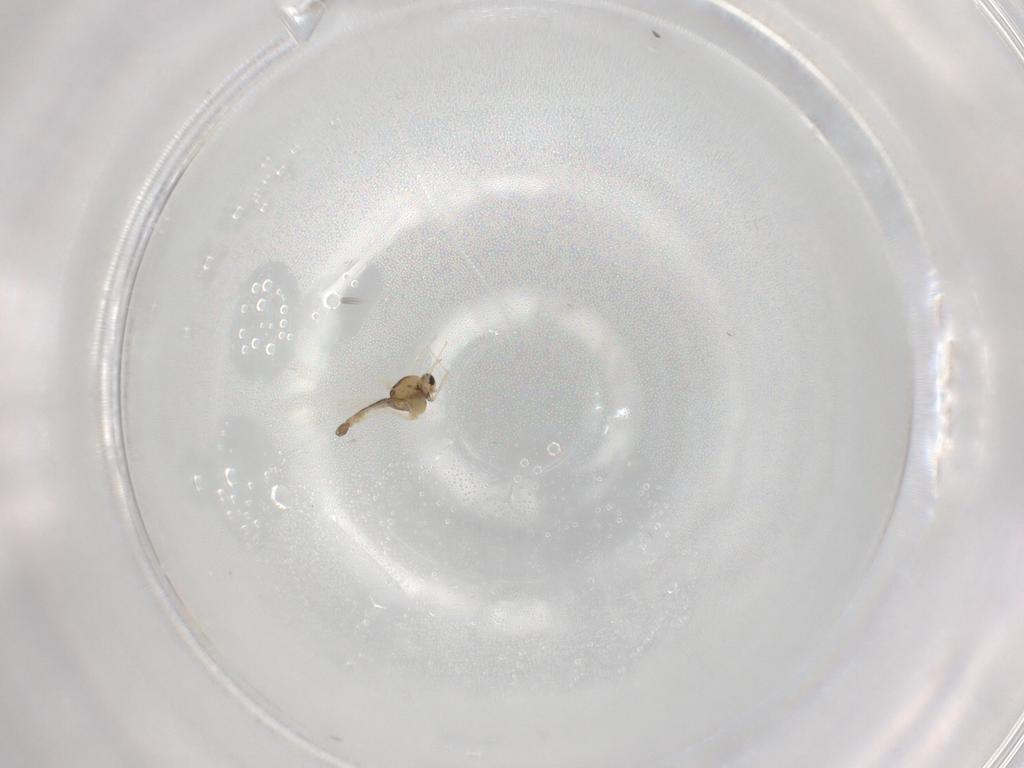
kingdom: Animalia
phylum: Arthropoda
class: Insecta
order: Diptera
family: Chironomidae
